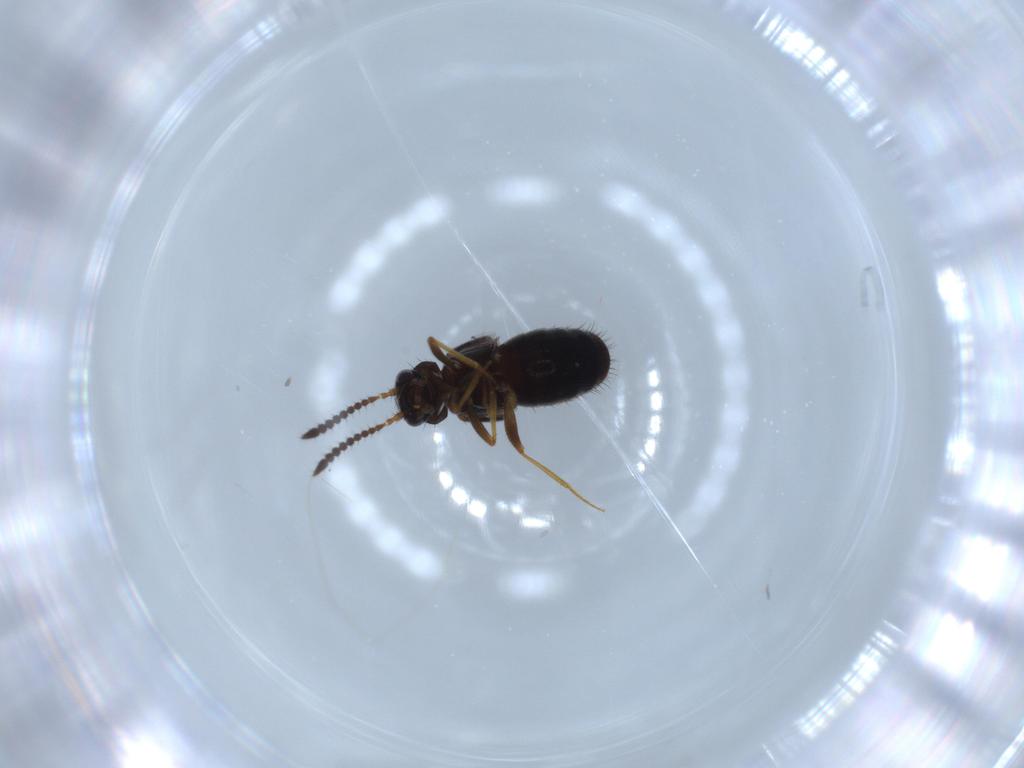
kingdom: Animalia
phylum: Arthropoda
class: Insecta
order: Coleoptera
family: Staphylinidae
